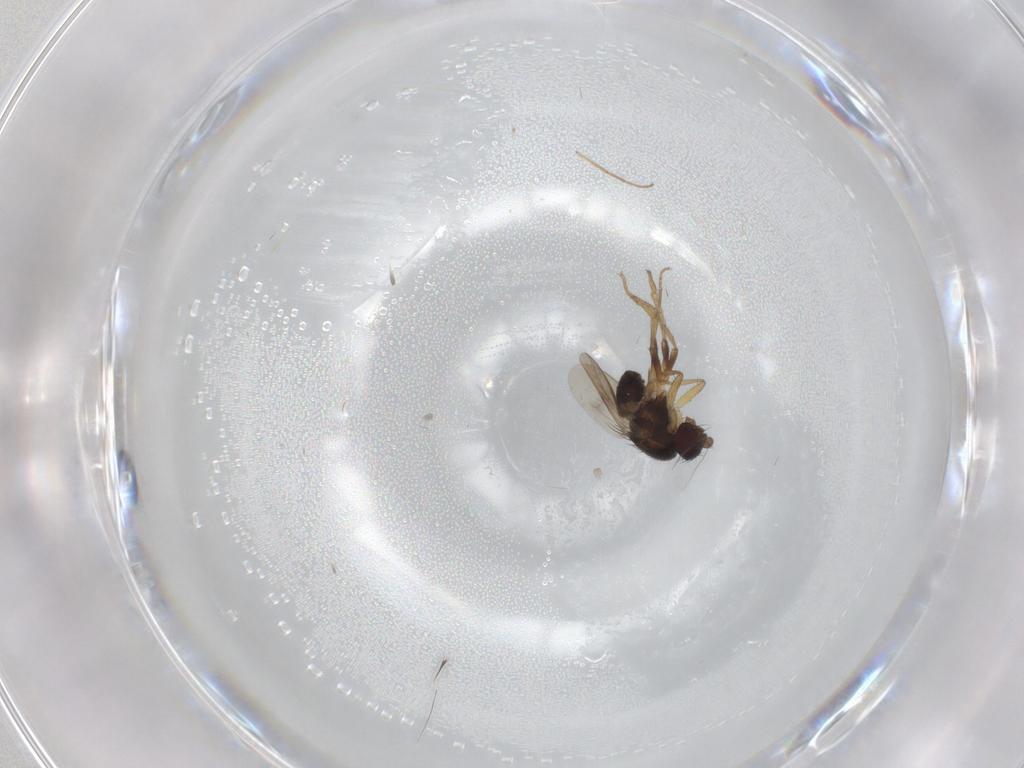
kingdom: Animalia
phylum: Arthropoda
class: Insecta
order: Diptera
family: Sphaeroceridae
